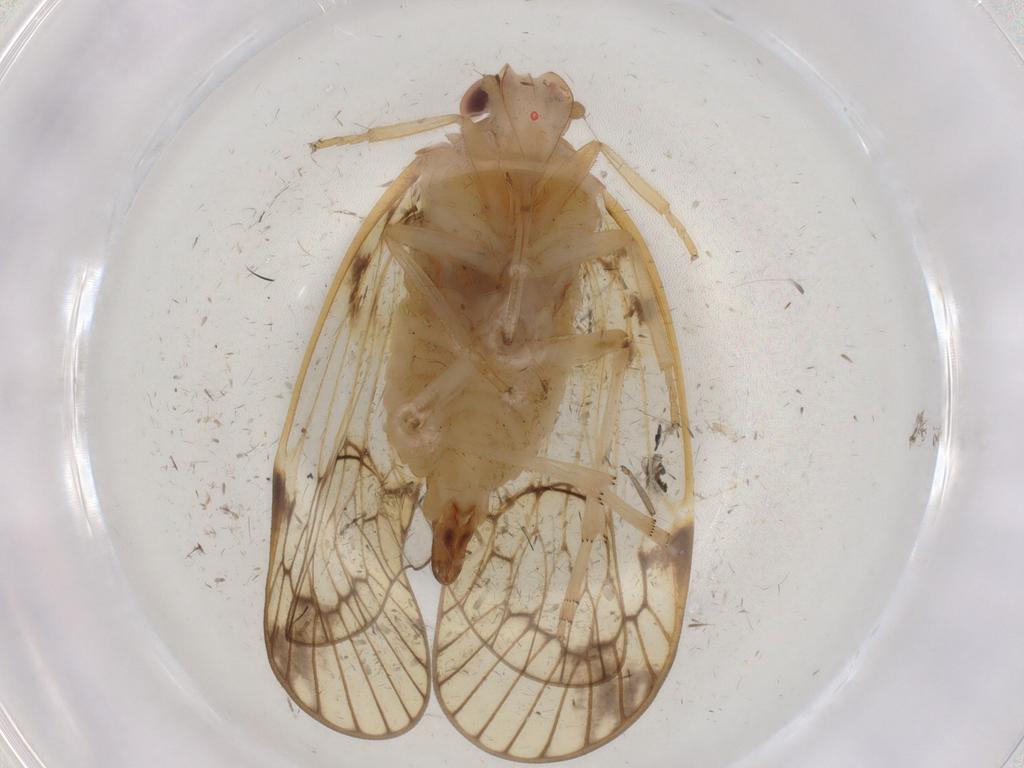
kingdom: Animalia
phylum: Arthropoda
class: Insecta
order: Hemiptera
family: Cixiidae
